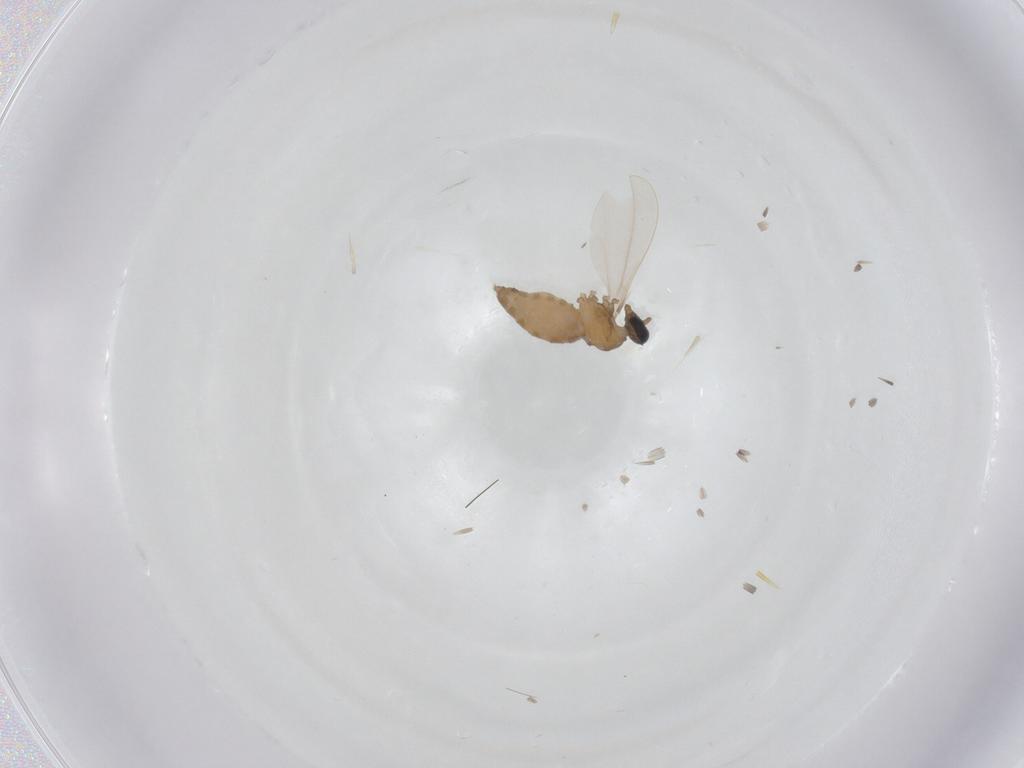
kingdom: Animalia
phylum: Arthropoda
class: Insecta
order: Diptera
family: Cecidomyiidae
